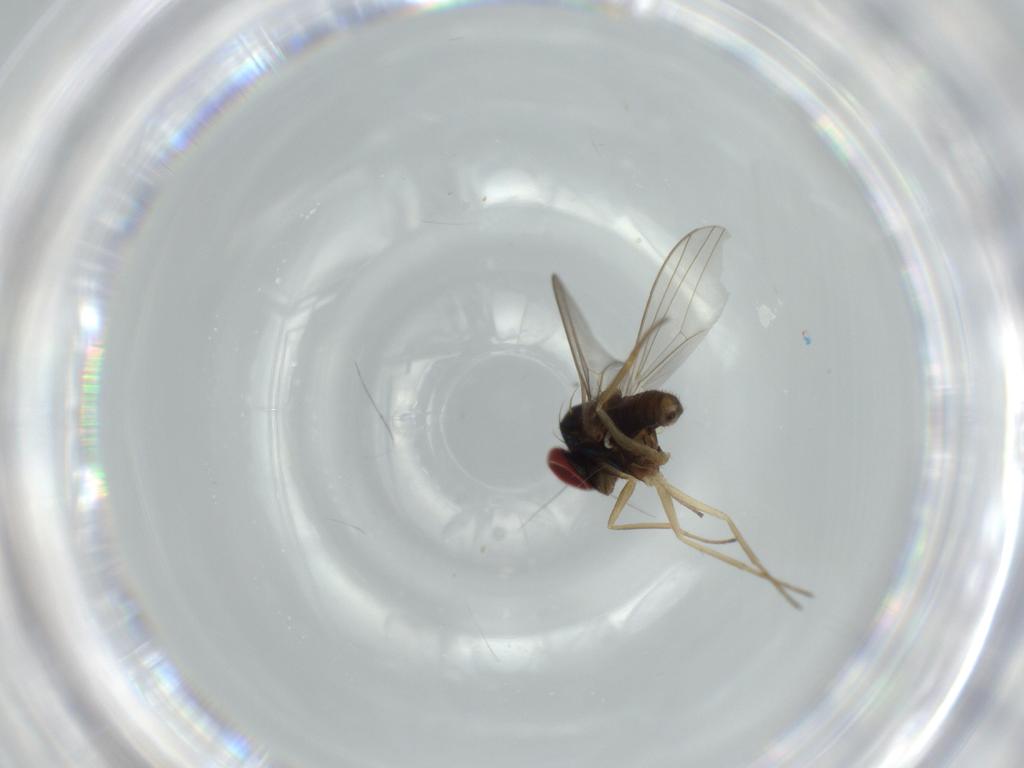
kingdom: Animalia
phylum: Arthropoda
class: Insecta
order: Diptera
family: Dolichopodidae
